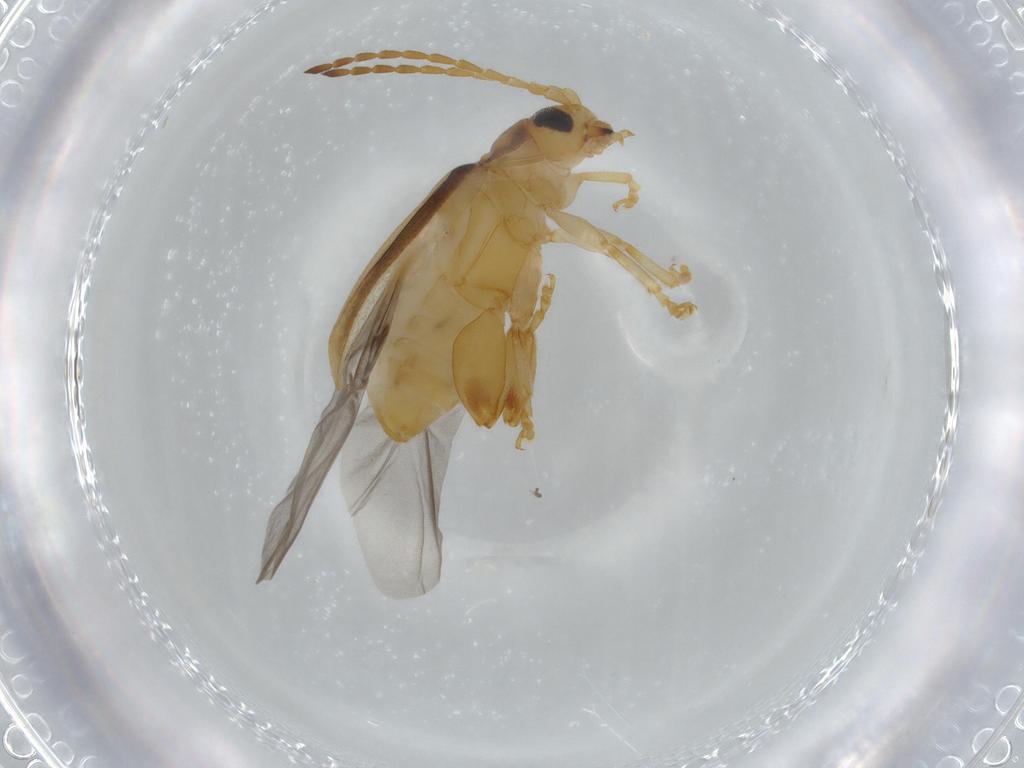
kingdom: Animalia
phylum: Arthropoda
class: Insecta
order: Coleoptera
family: Chrysomelidae
